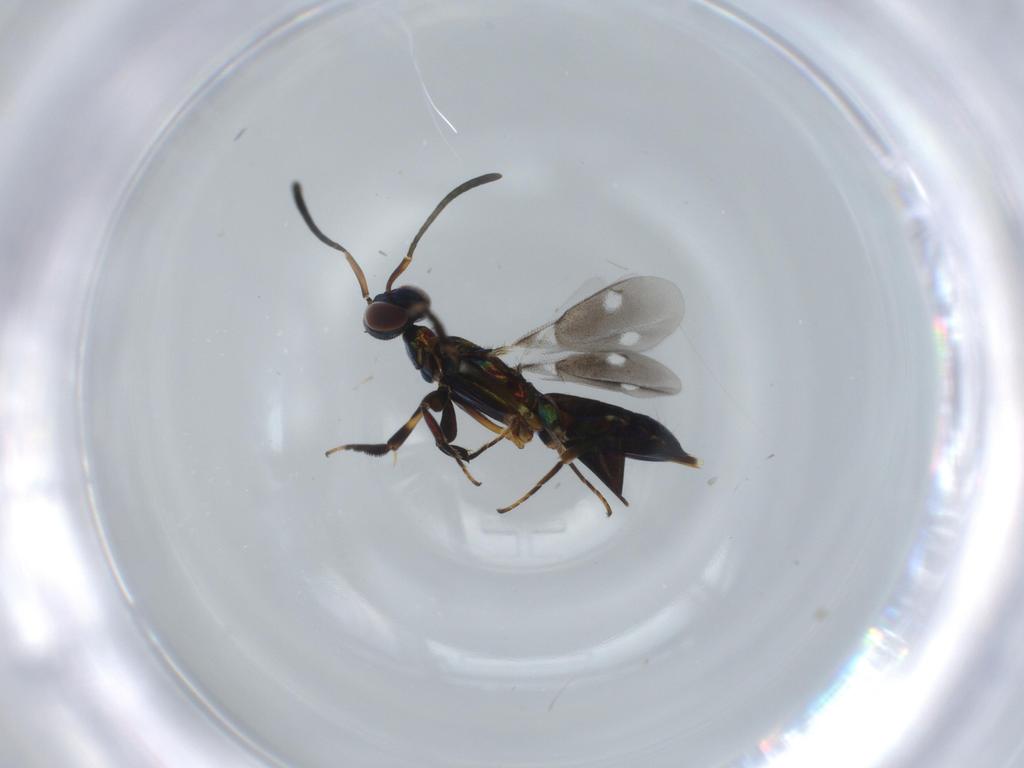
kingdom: Animalia
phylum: Arthropoda
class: Insecta
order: Hymenoptera
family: Eupelmidae
